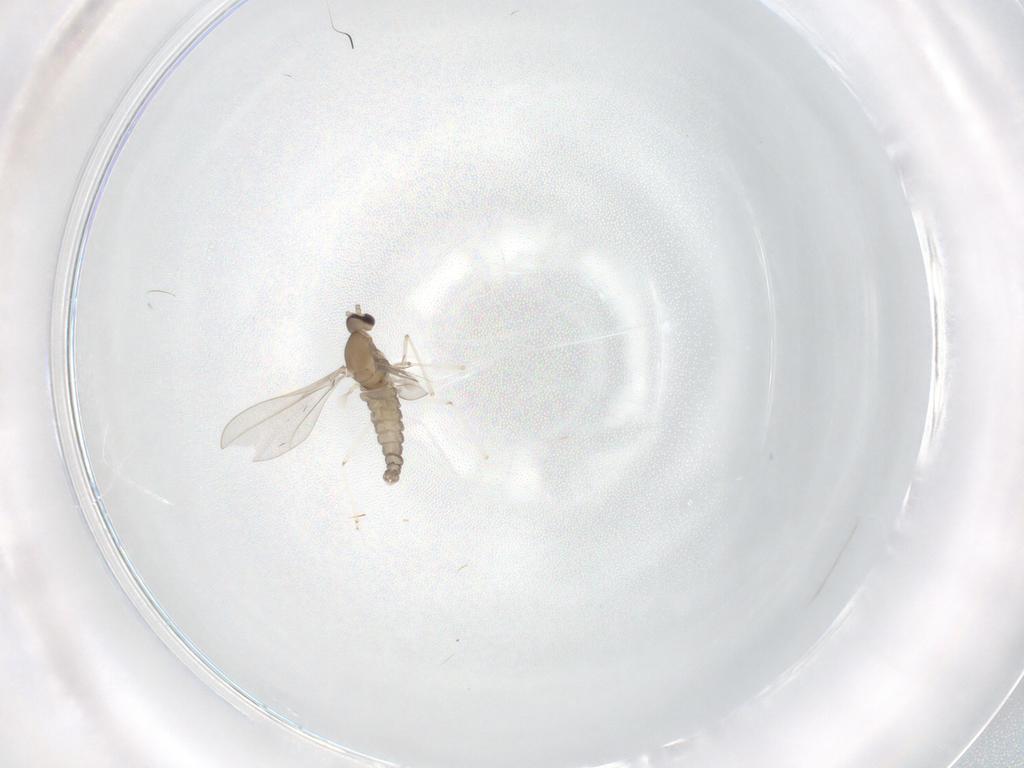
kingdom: Animalia
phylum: Arthropoda
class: Insecta
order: Diptera
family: Cecidomyiidae
